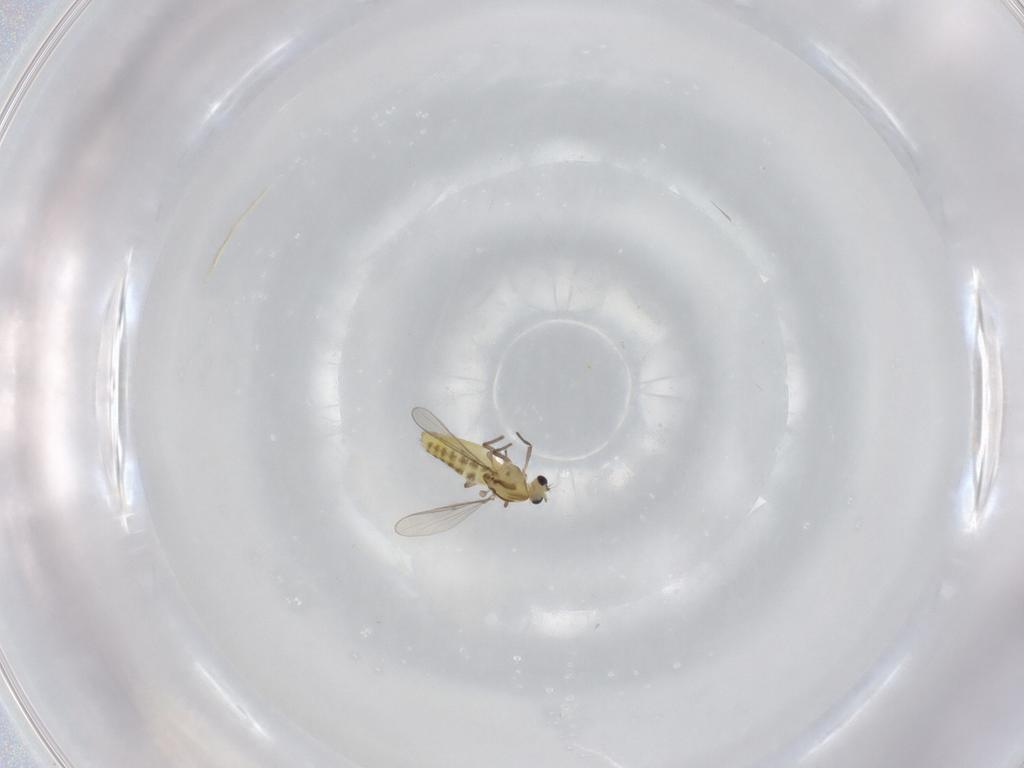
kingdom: Animalia
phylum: Arthropoda
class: Insecta
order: Diptera
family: Chironomidae
